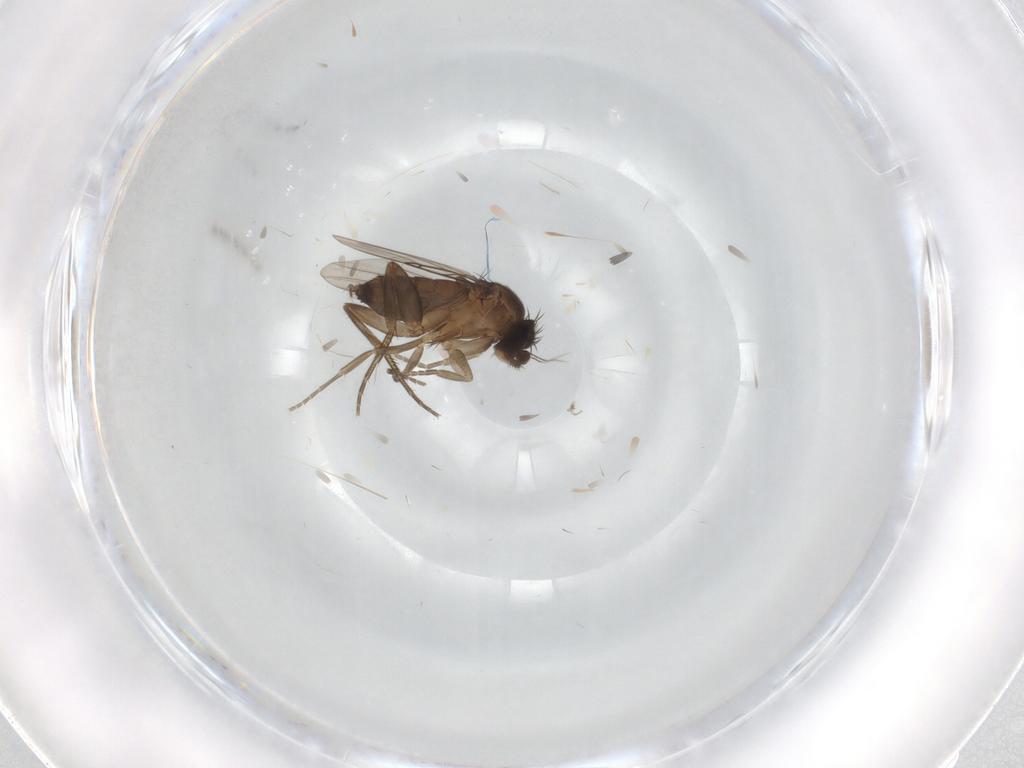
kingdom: Animalia
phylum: Arthropoda
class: Insecta
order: Diptera
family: Phoridae
